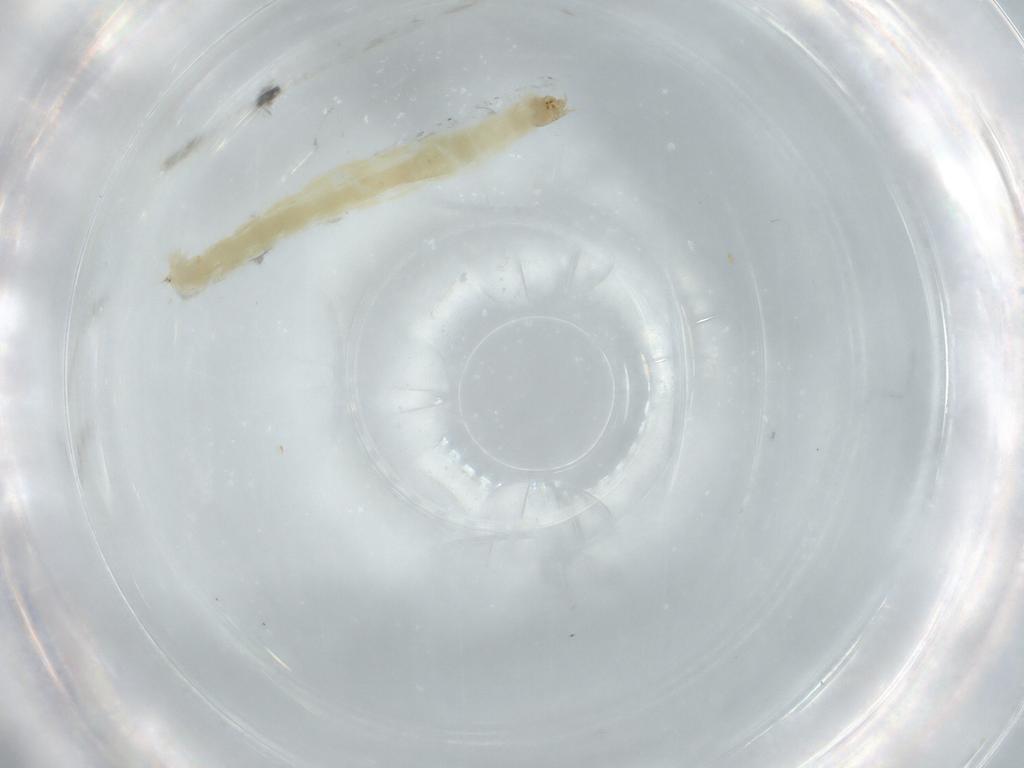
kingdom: Animalia
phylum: Arthropoda
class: Insecta
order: Diptera
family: Chironomidae
